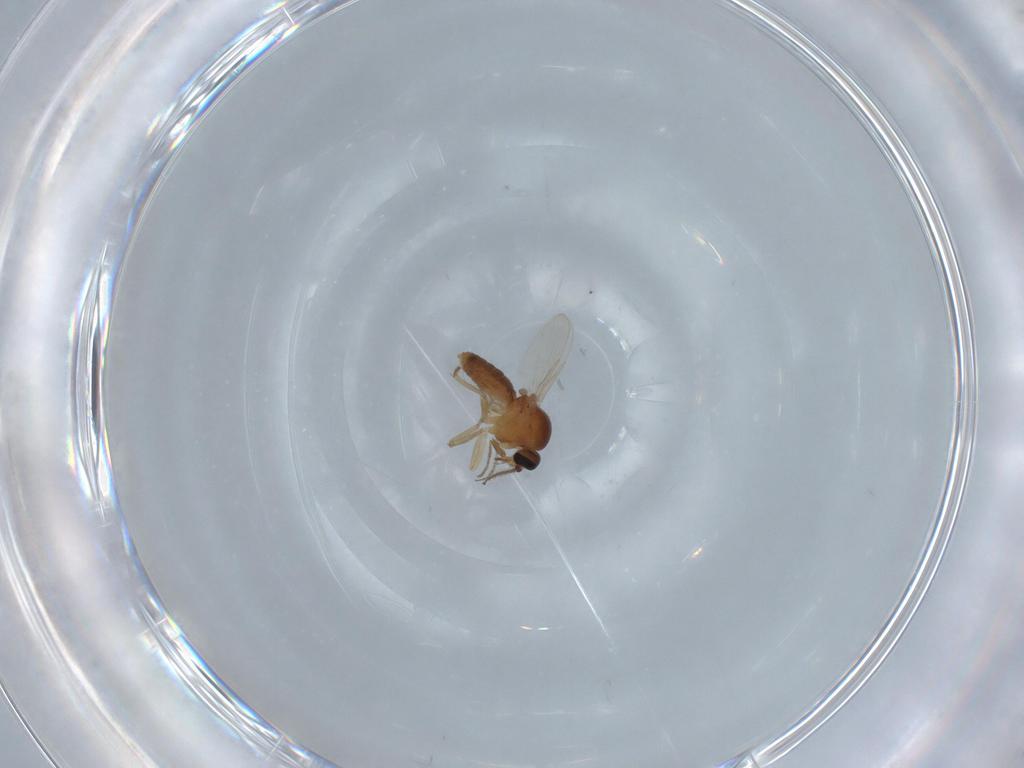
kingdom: Animalia
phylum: Arthropoda
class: Insecta
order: Diptera
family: Ceratopogonidae
